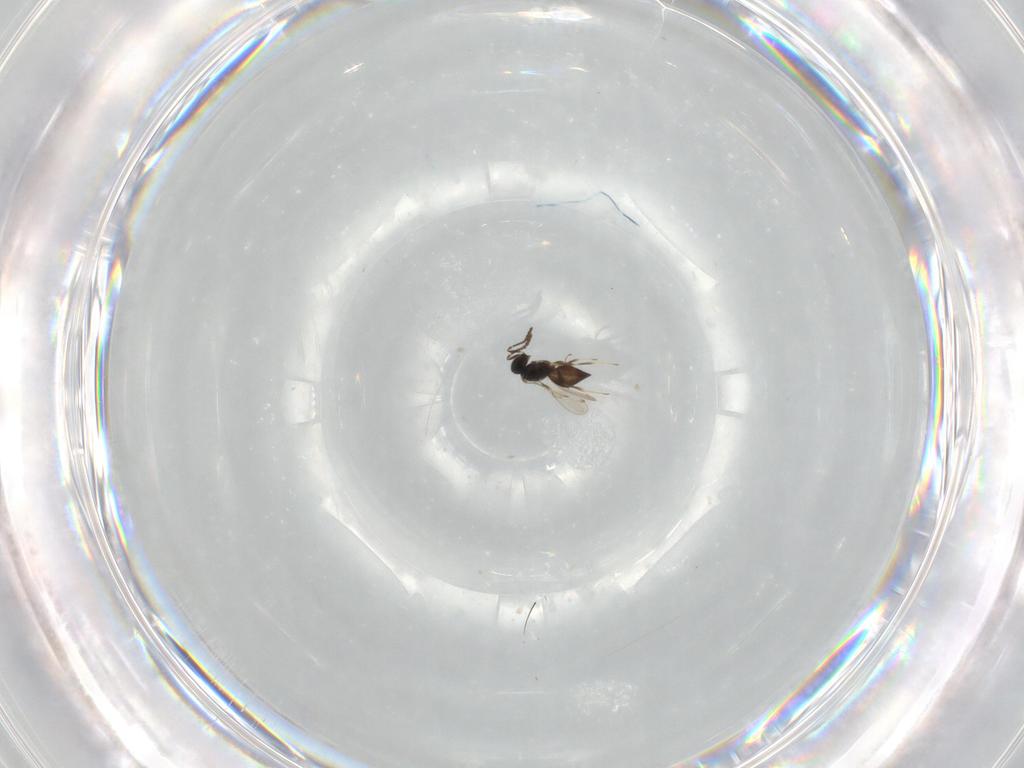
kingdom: Animalia
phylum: Arthropoda
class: Insecta
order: Hymenoptera
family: Scelionidae
